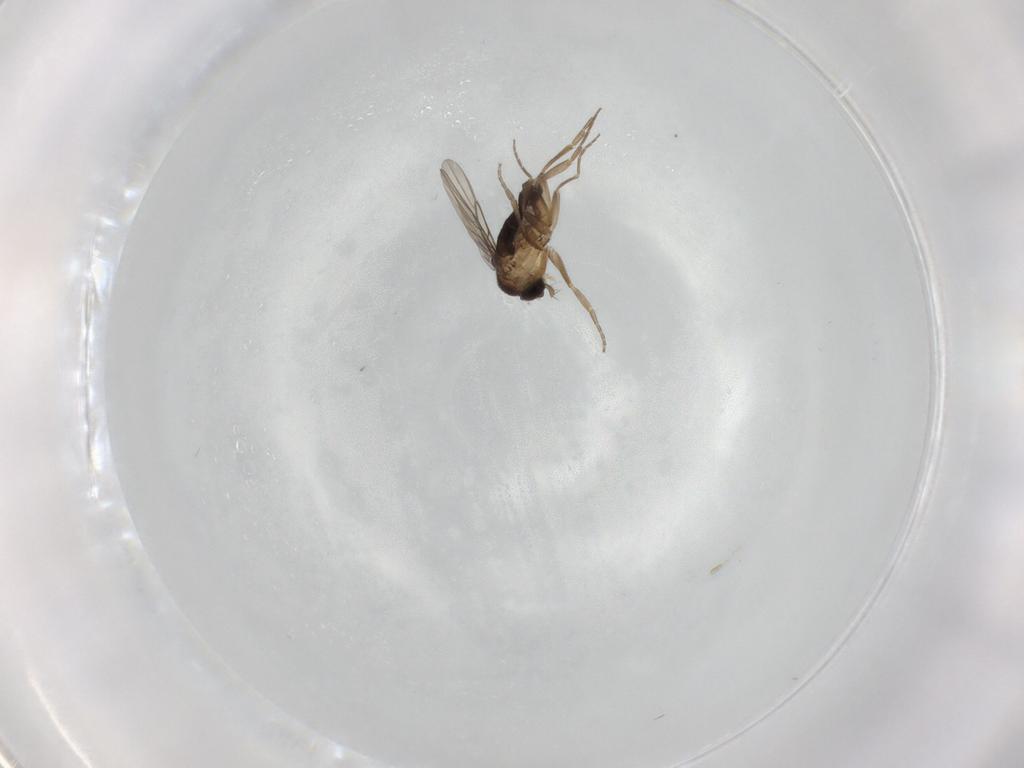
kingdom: Animalia
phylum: Arthropoda
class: Insecta
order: Diptera
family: Phoridae
